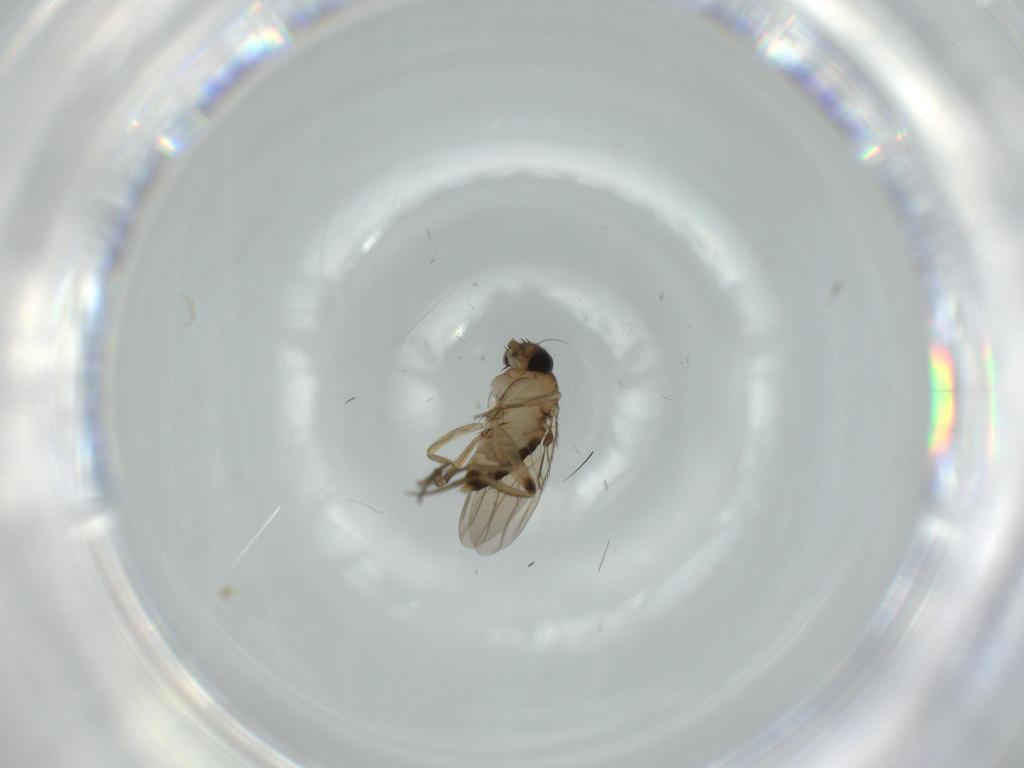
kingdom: Animalia
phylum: Arthropoda
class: Insecta
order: Diptera
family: Phoridae
